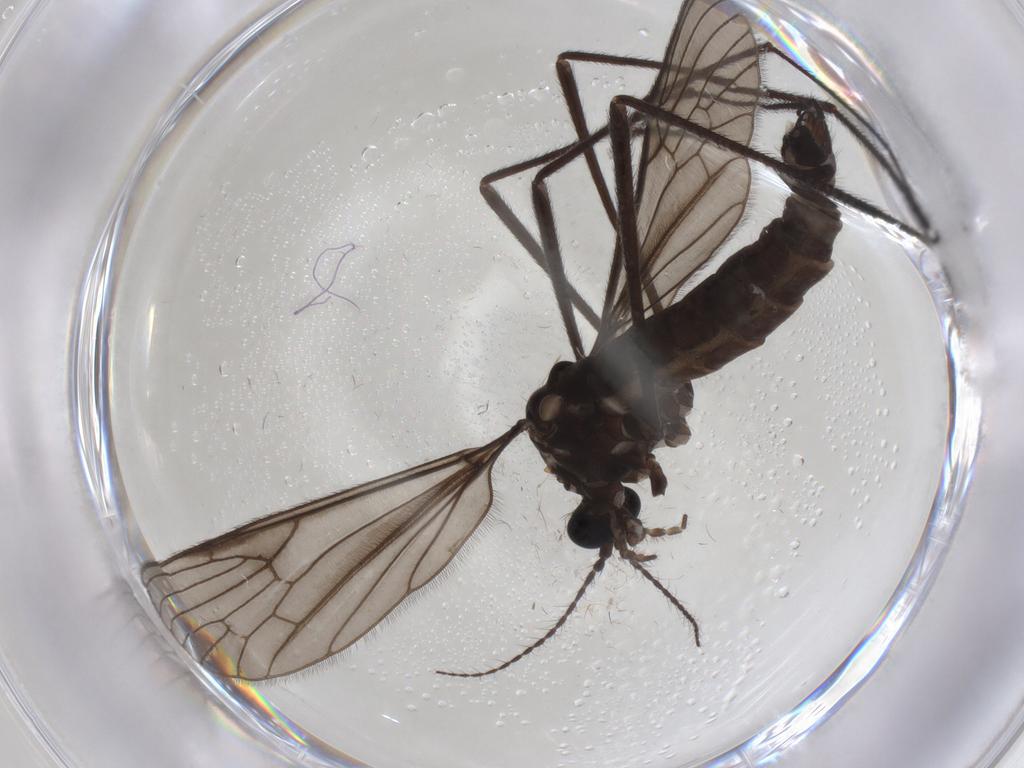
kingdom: Animalia
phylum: Arthropoda
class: Insecta
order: Diptera
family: Limoniidae
